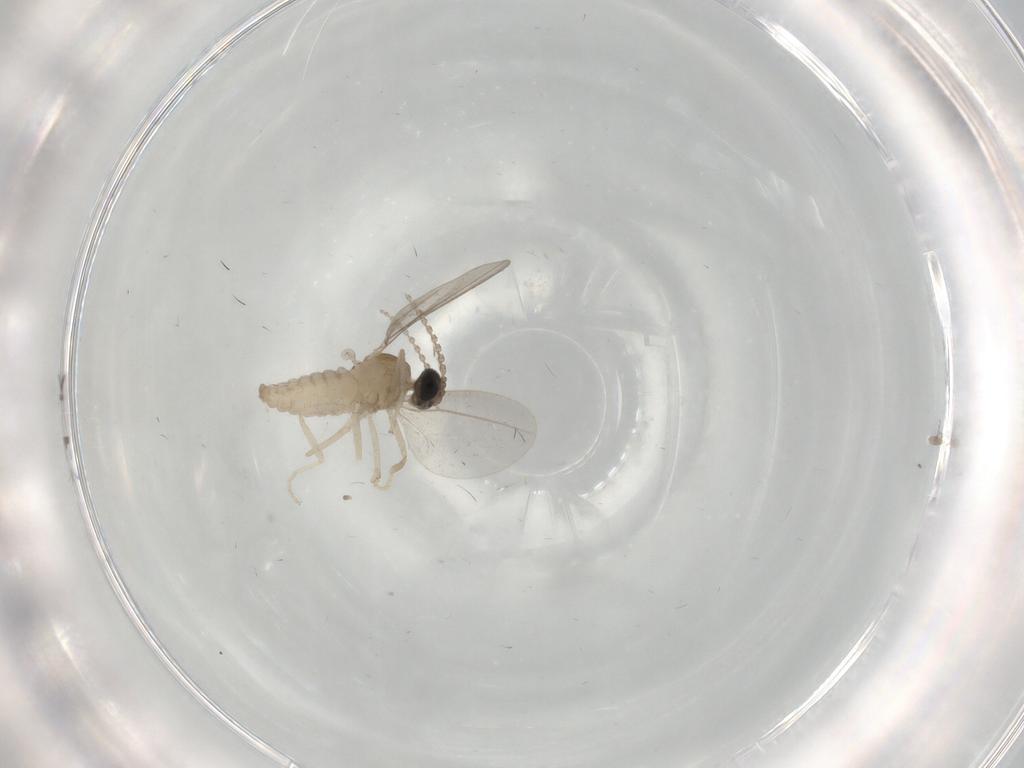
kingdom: Animalia
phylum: Arthropoda
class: Insecta
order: Diptera
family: Cecidomyiidae
